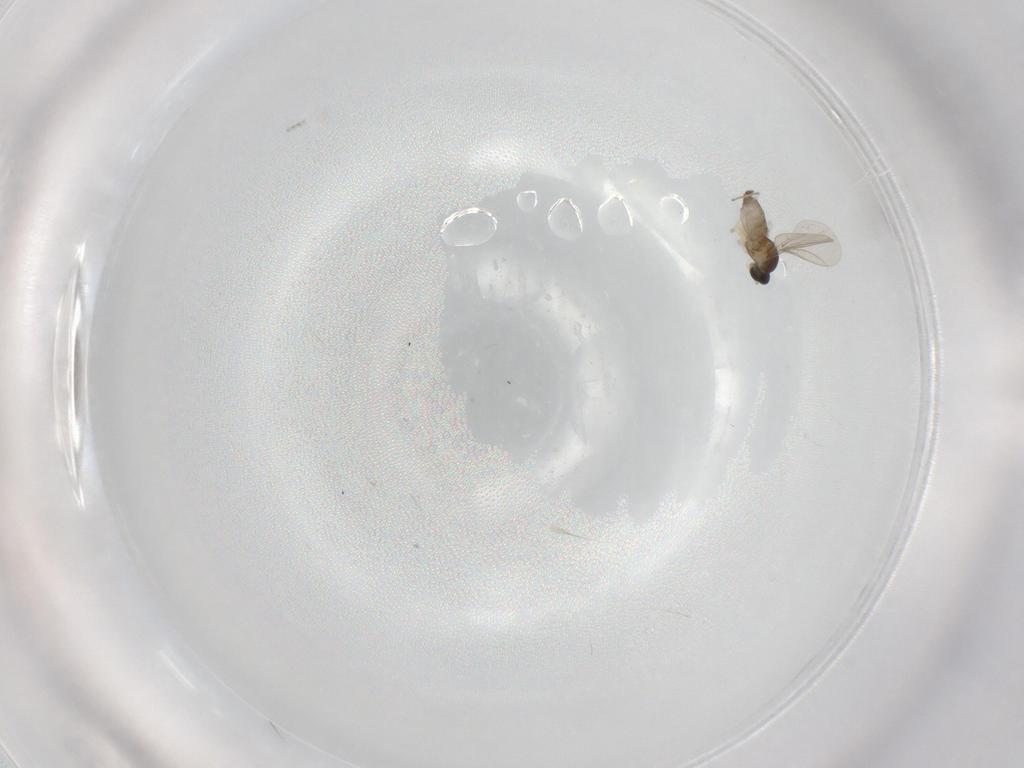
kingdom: Animalia
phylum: Arthropoda
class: Insecta
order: Diptera
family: Cecidomyiidae
